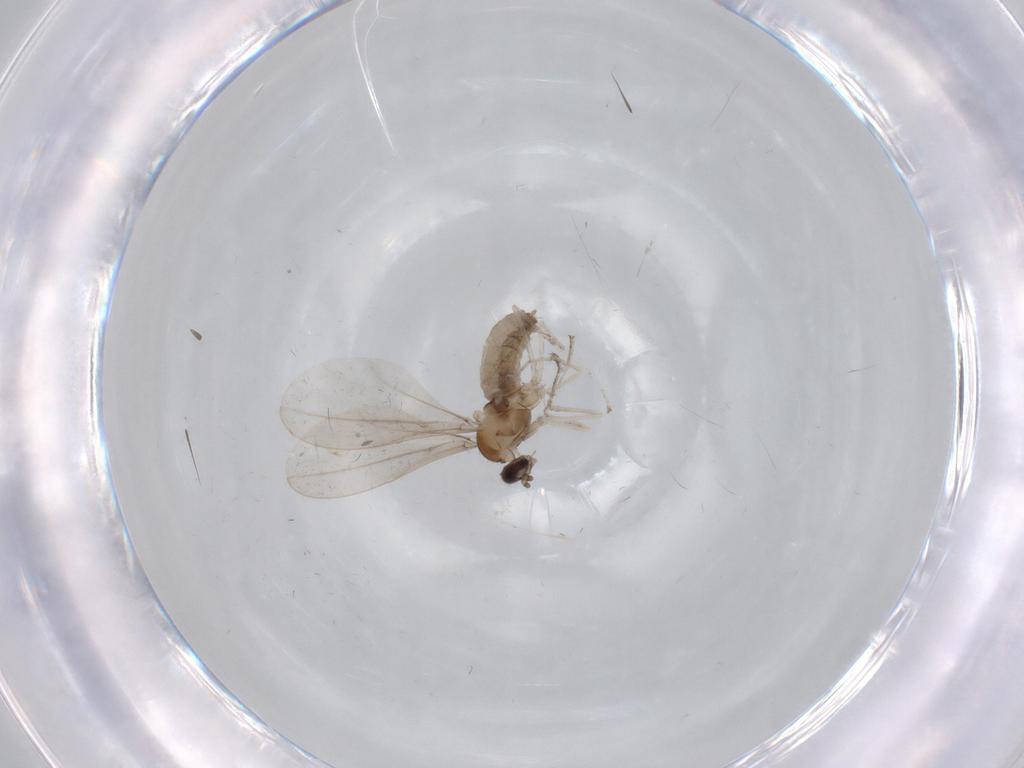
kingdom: Animalia
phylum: Arthropoda
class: Insecta
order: Diptera
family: Cecidomyiidae
